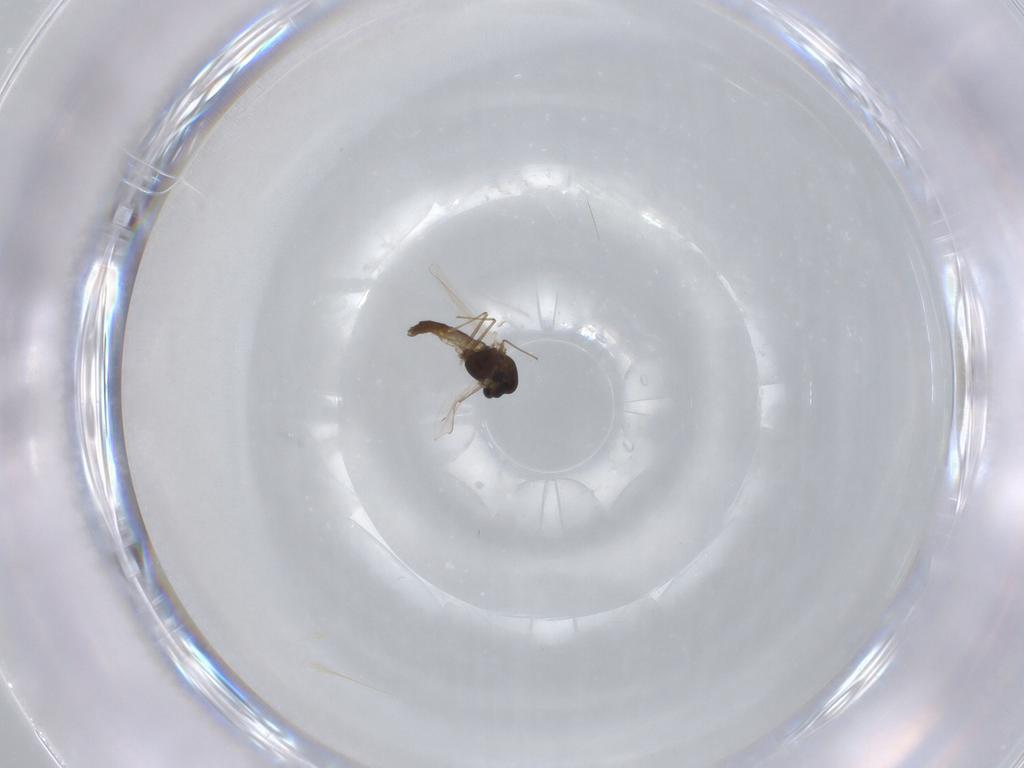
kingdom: Animalia
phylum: Arthropoda
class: Insecta
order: Diptera
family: Chironomidae
